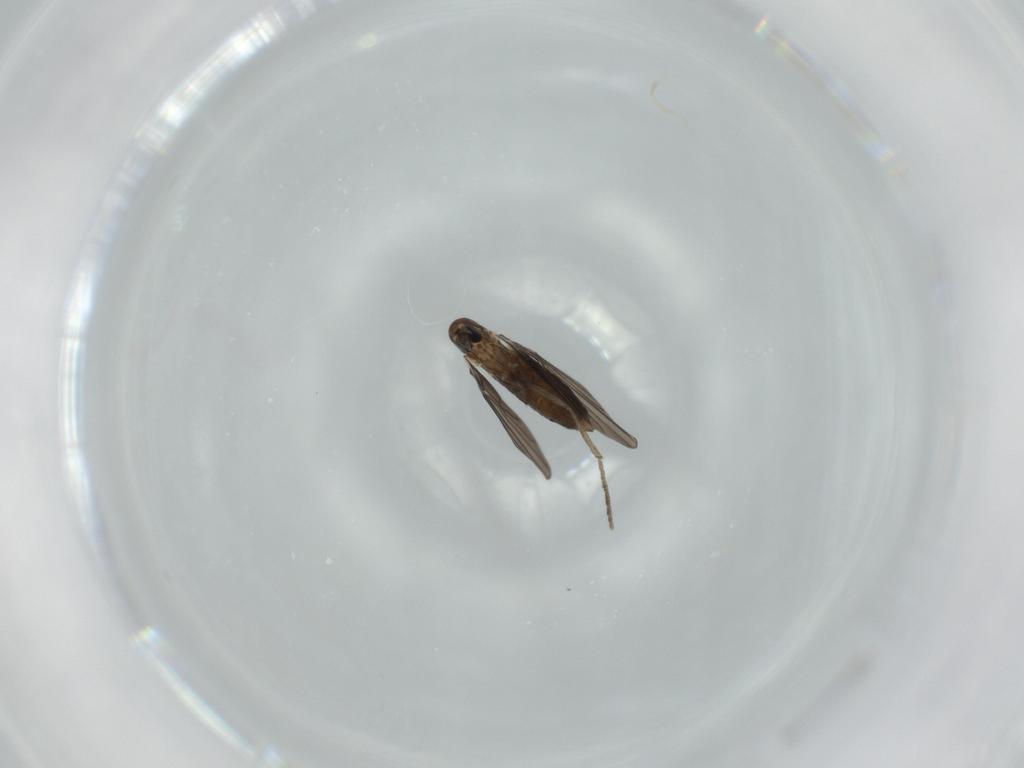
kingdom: Animalia
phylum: Arthropoda
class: Insecta
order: Diptera
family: Psychodidae
